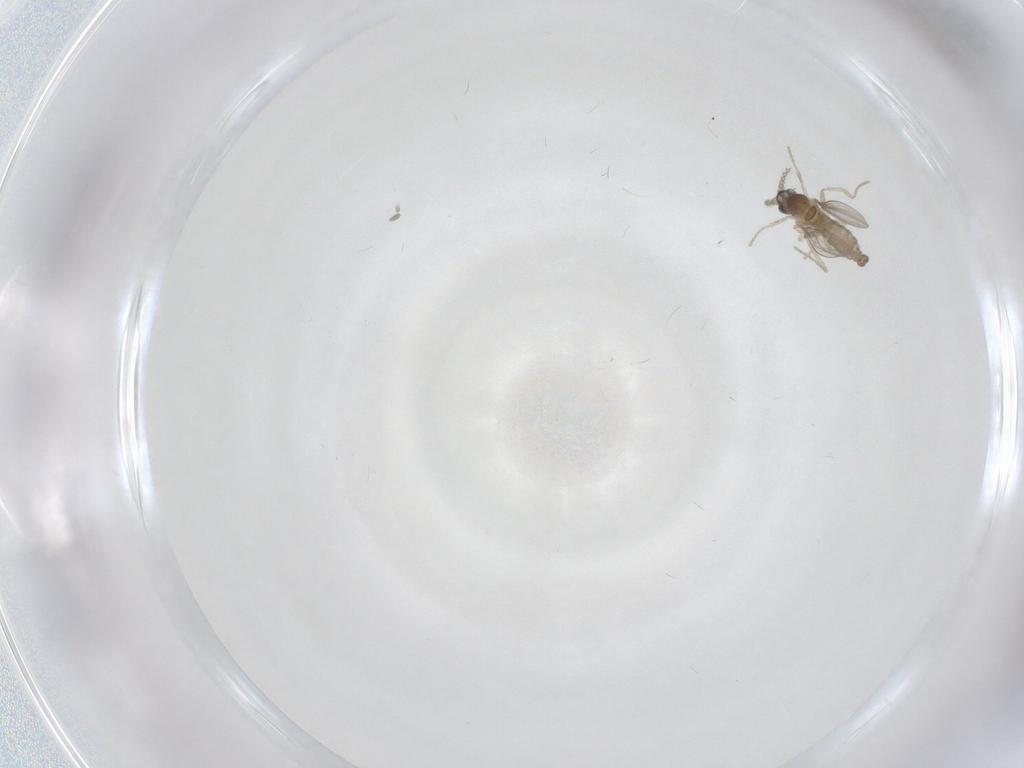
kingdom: Animalia
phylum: Arthropoda
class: Insecta
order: Diptera
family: Cecidomyiidae
